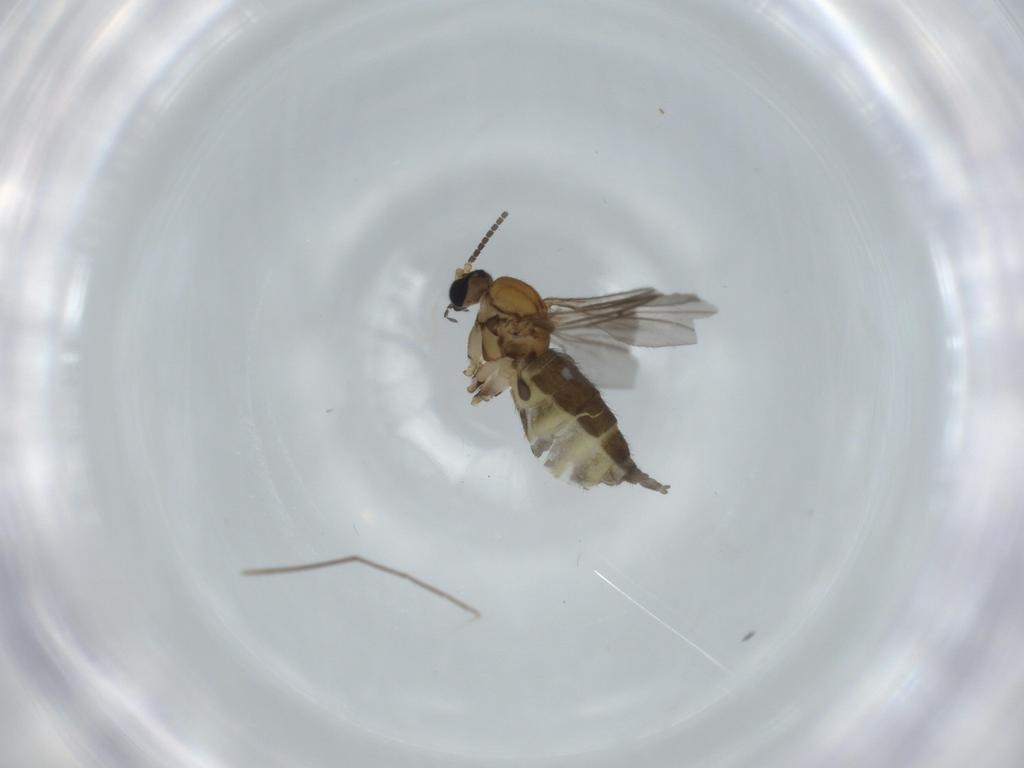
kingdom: Animalia
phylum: Arthropoda
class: Insecta
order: Diptera
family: Sciaridae
